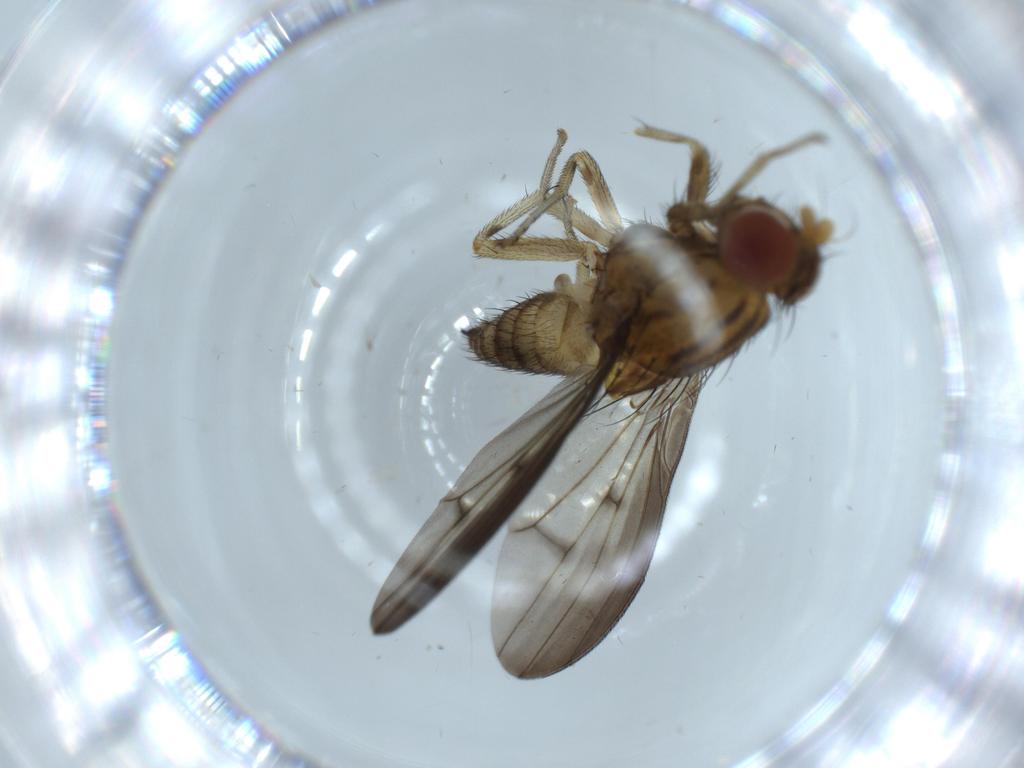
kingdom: Animalia
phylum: Arthropoda
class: Insecta
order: Diptera
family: Lauxaniidae
